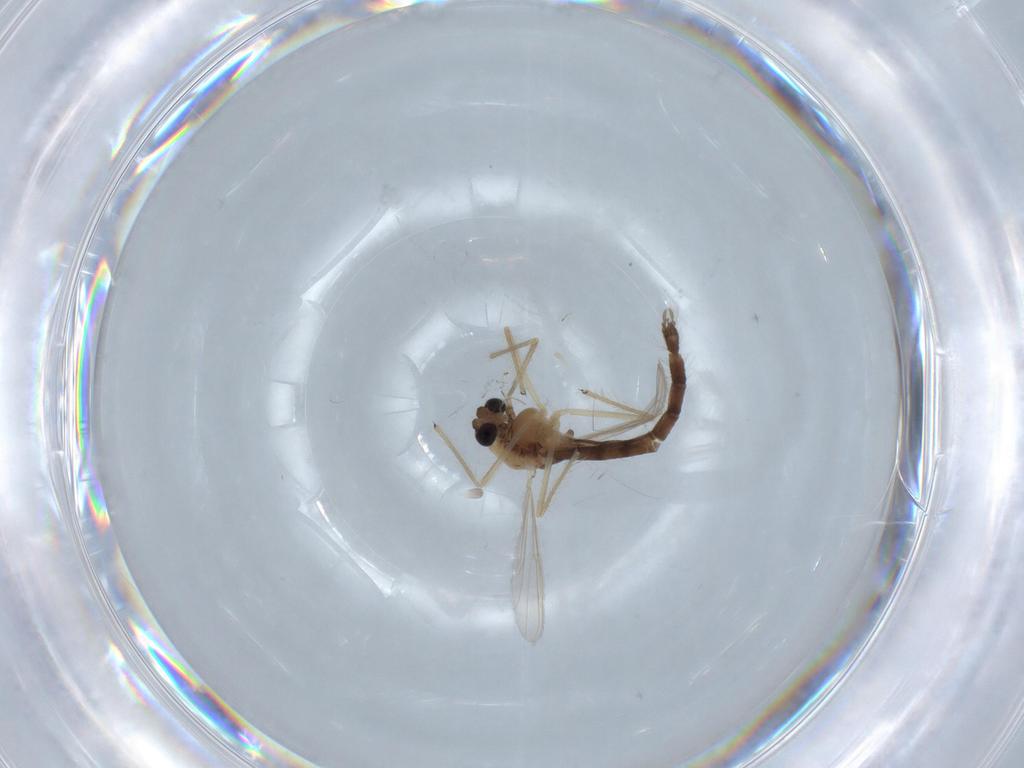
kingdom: Animalia
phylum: Arthropoda
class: Insecta
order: Diptera
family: Chironomidae
